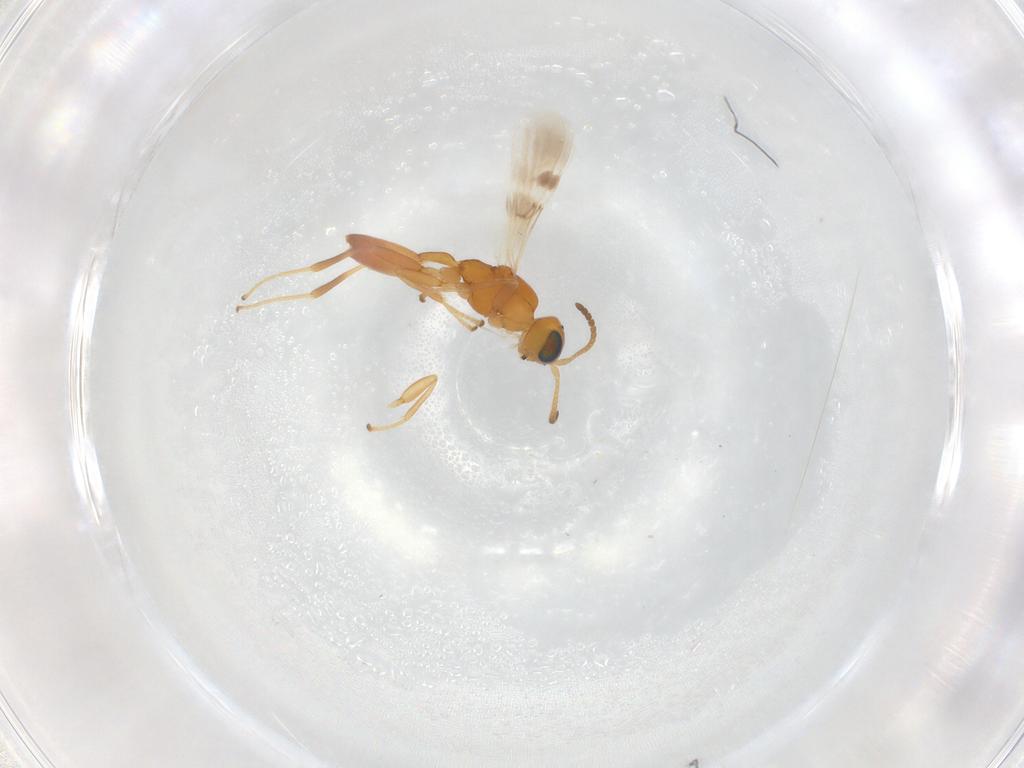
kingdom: Animalia
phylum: Arthropoda
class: Insecta
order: Hymenoptera
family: Braconidae
